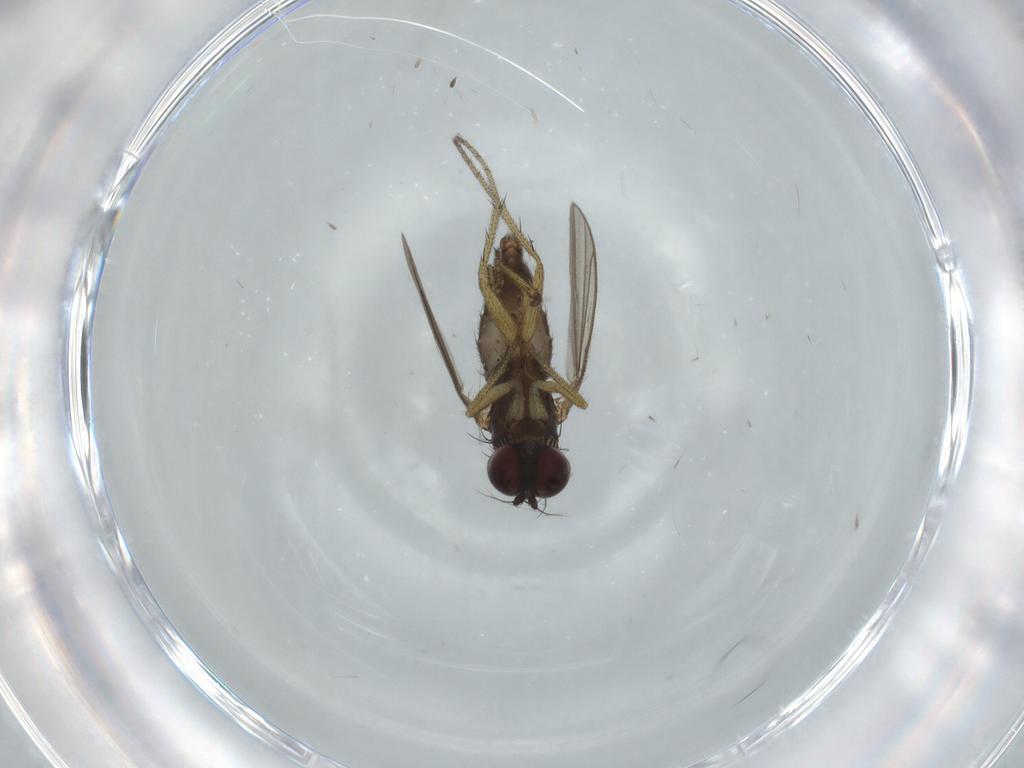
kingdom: Animalia
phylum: Arthropoda
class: Insecta
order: Diptera
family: Dolichopodidae
